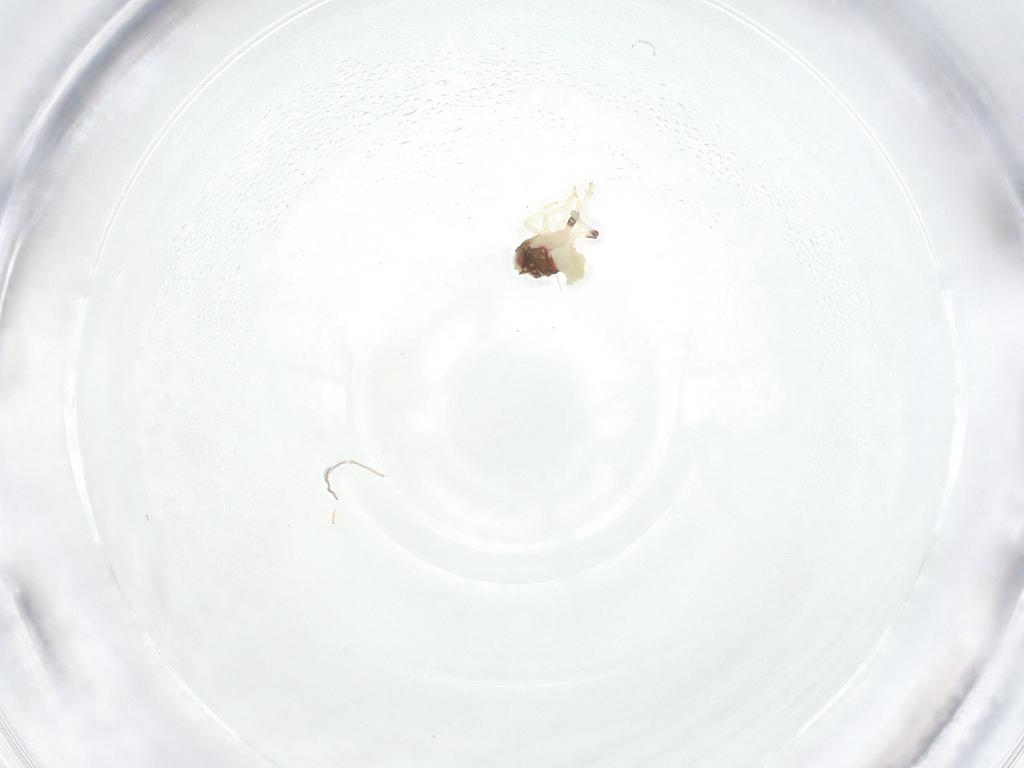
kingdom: Animalia
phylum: Arthropoda
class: Insecta
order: Hemiptera
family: Nogodinidae
